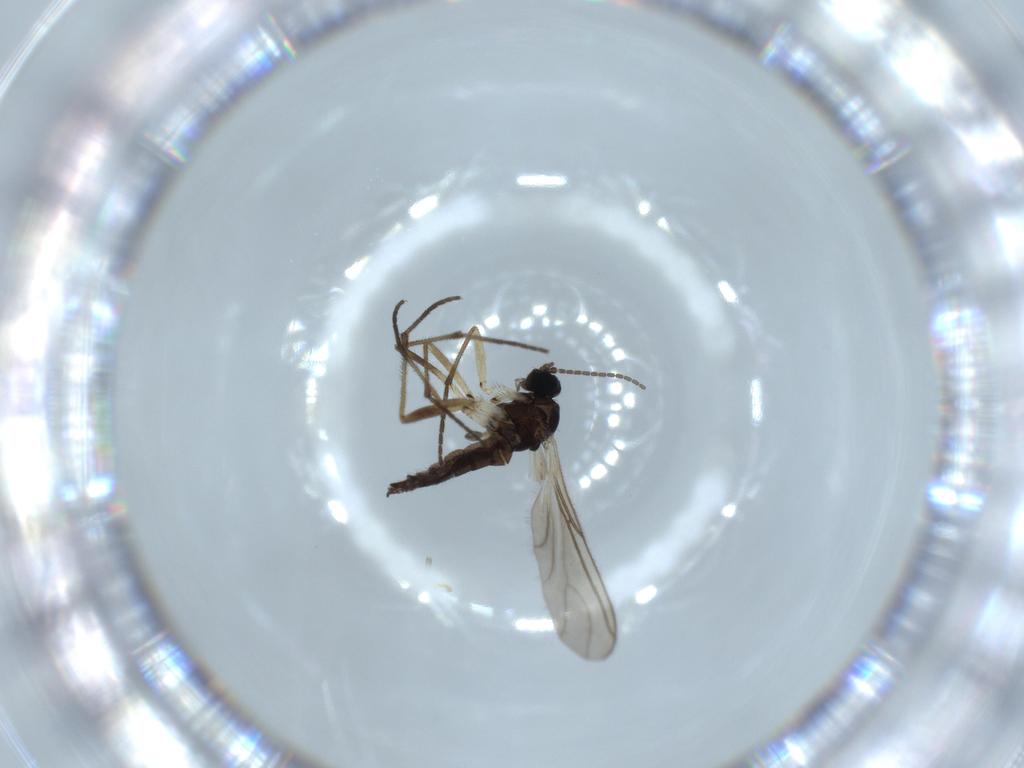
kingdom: Animalia
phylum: Arthropoda
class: Insecta
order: Diptera
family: Sciaridae
